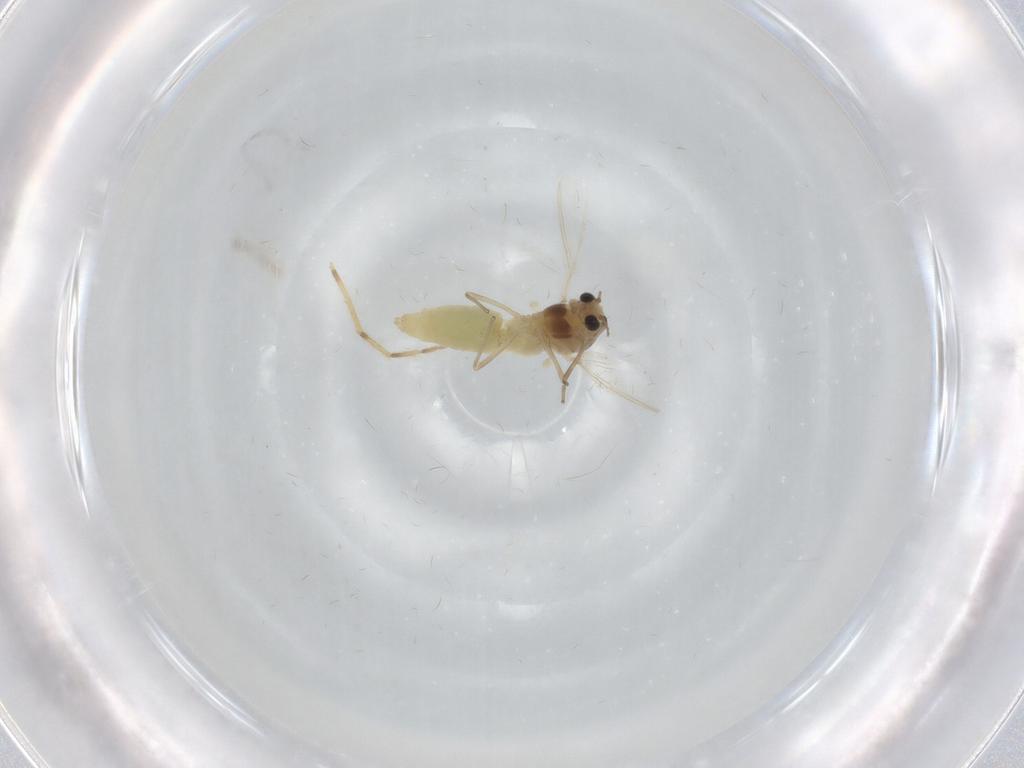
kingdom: Animalia
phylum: Arthropoda
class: Insecta
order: Diptera
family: Chironomidae
